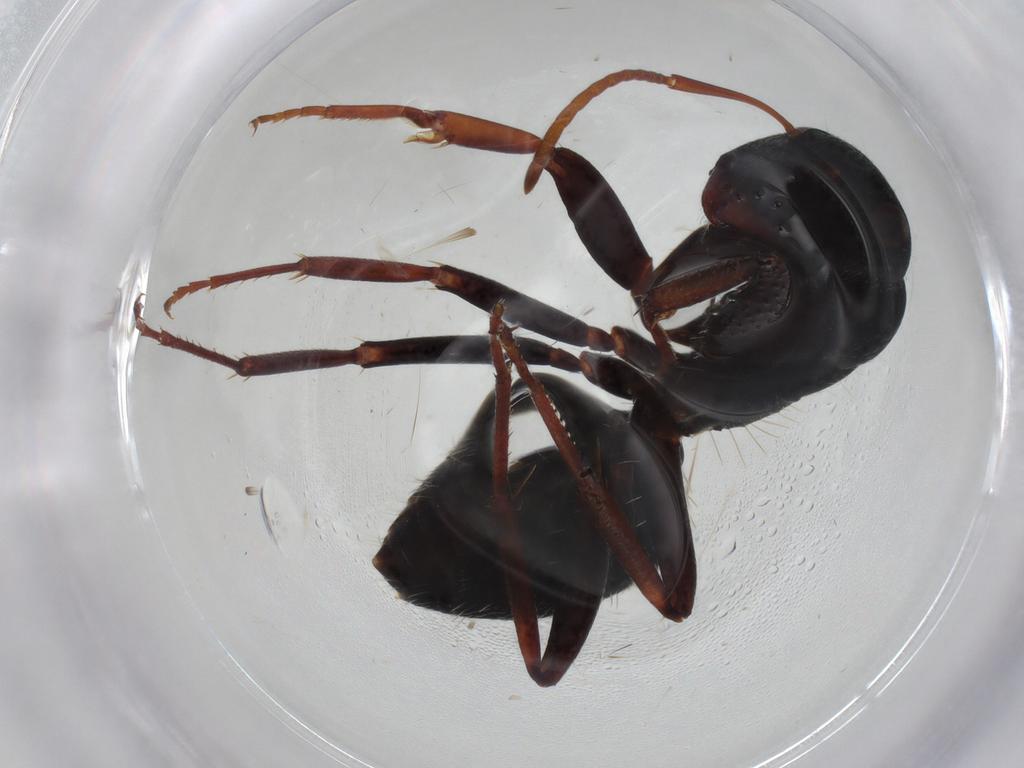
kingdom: Animalia
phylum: Arthropoda
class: Insecta
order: Hymenoptera
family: Formicidae
